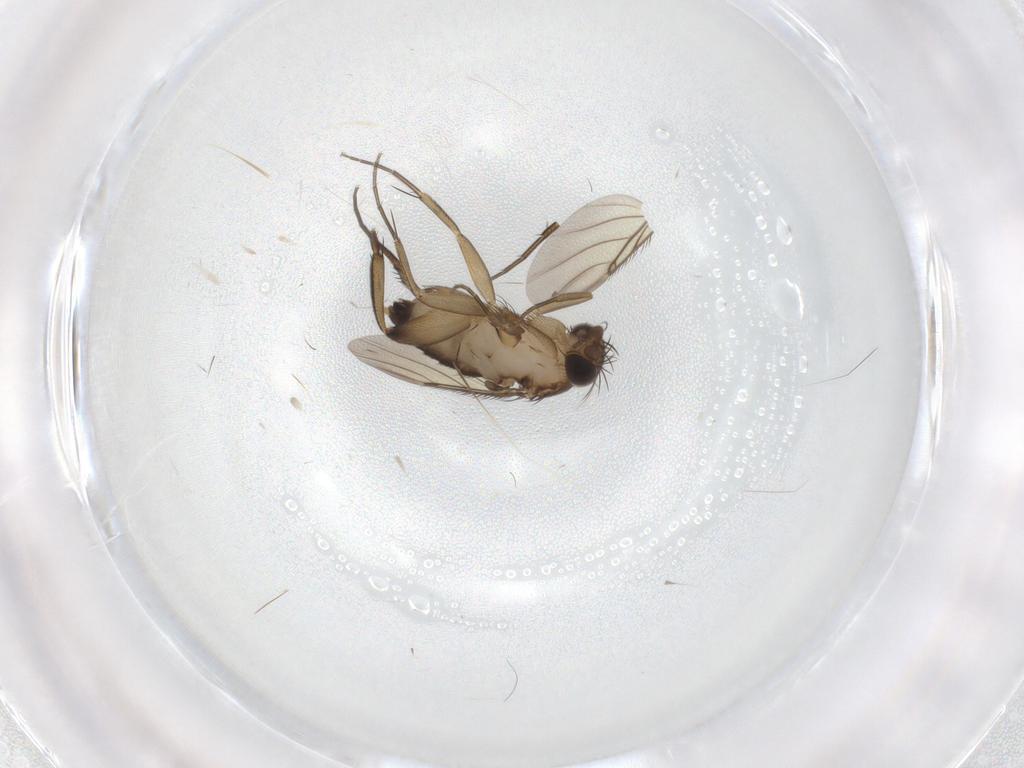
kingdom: Animalia
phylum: Arthropoda
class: Insecta
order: Diptera
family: Phoridae
